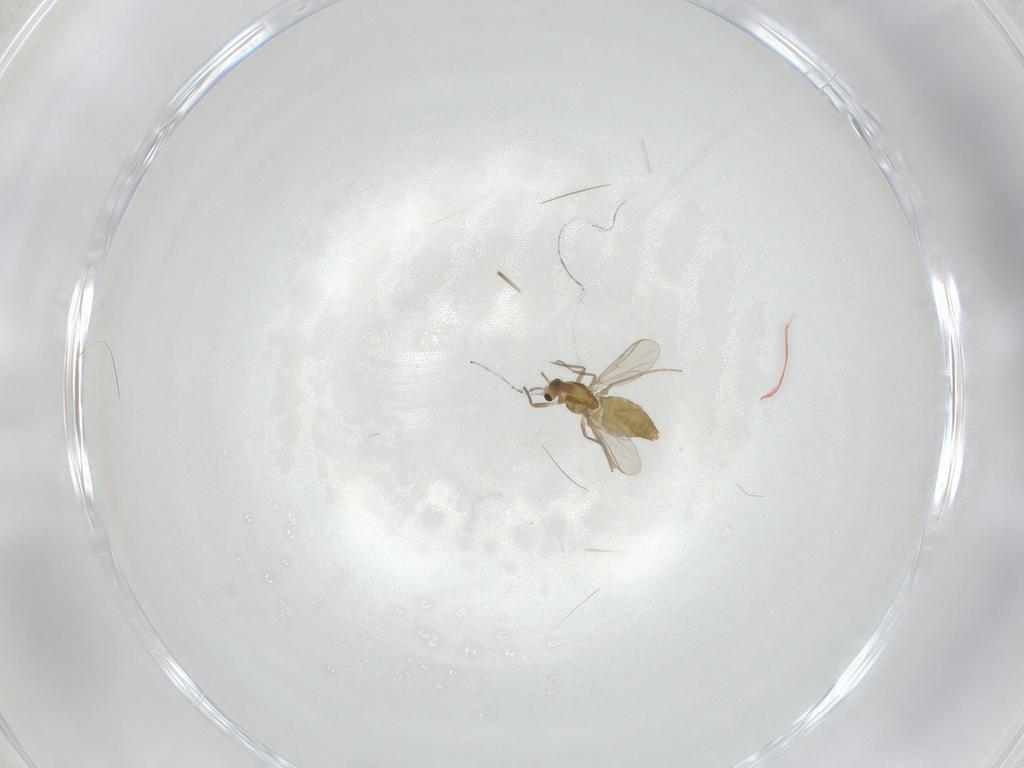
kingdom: Animalia
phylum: Arthropoda
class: Insecta
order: Diptera
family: Chironomidae
